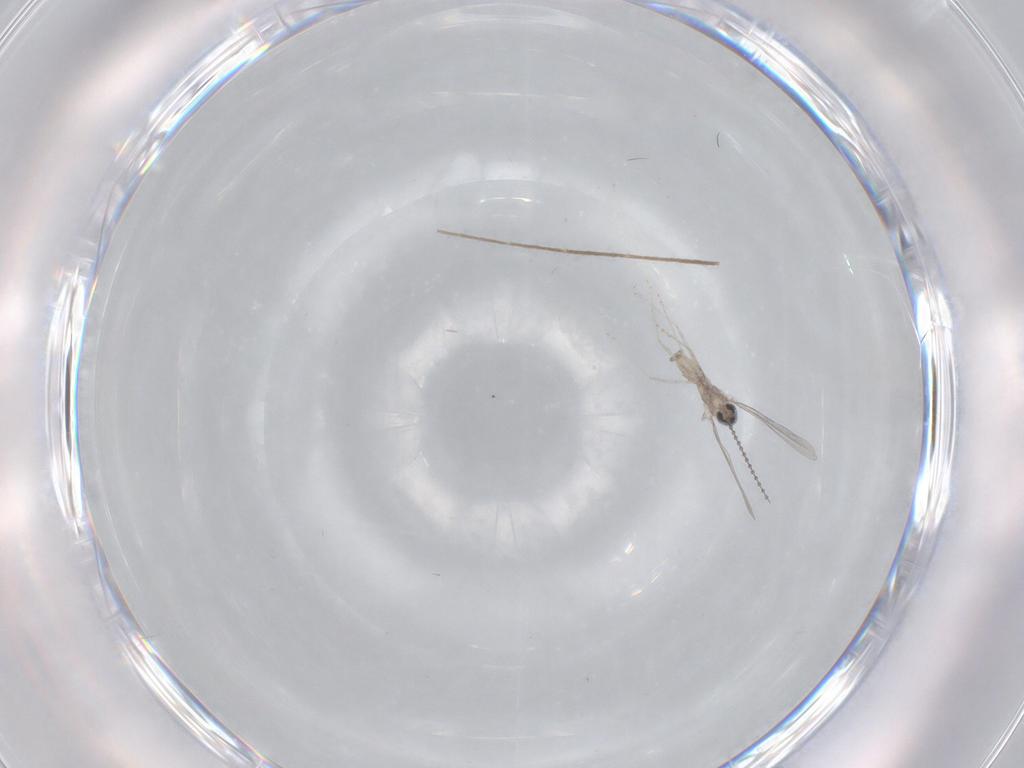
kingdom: Animalia
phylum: Arthropoda
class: Insecta
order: Diptera
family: Chironomidae
